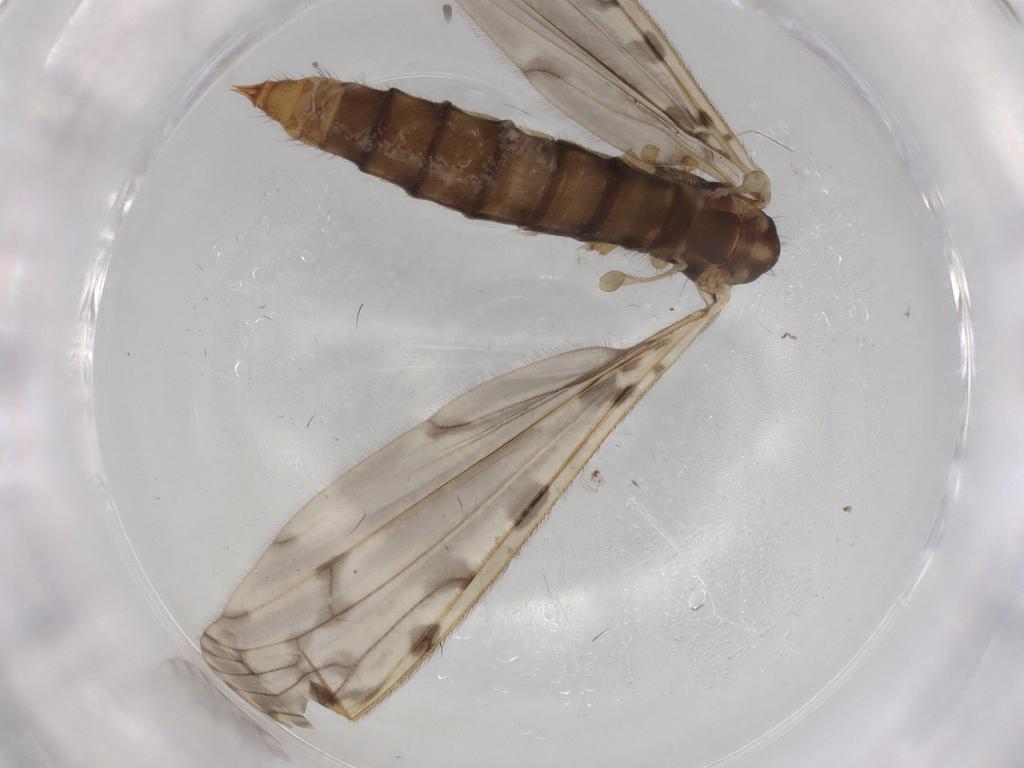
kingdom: Animalia
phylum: Arthropoda
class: Insecta
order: Diptera
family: Limoniidae
